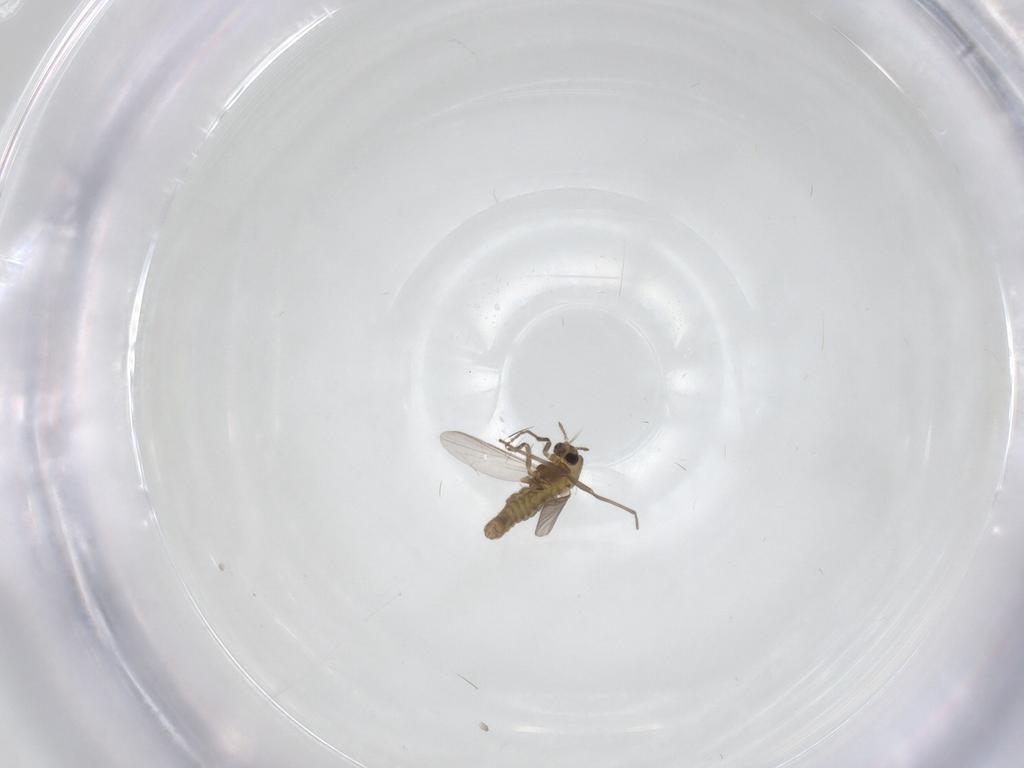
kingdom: Animalia
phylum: Arthropoda
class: Insecta
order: Diptera
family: Chironomidae
